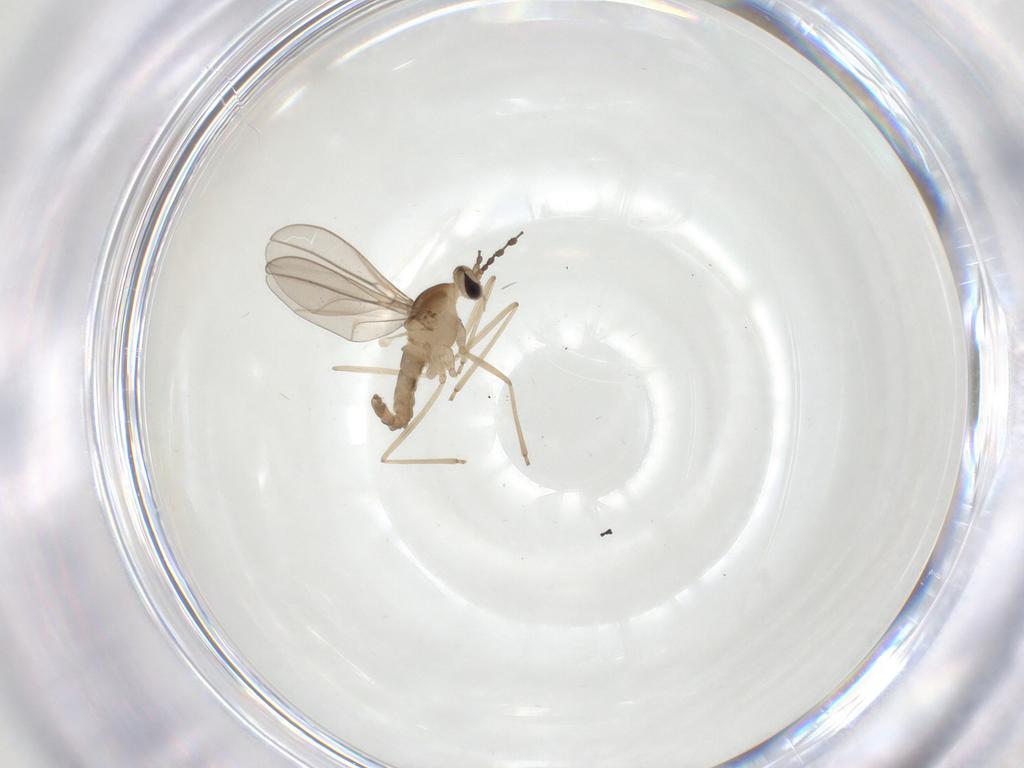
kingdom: Animalia
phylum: Arthropoda
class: Insecta
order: Diptera
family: Cecidomyiidae
